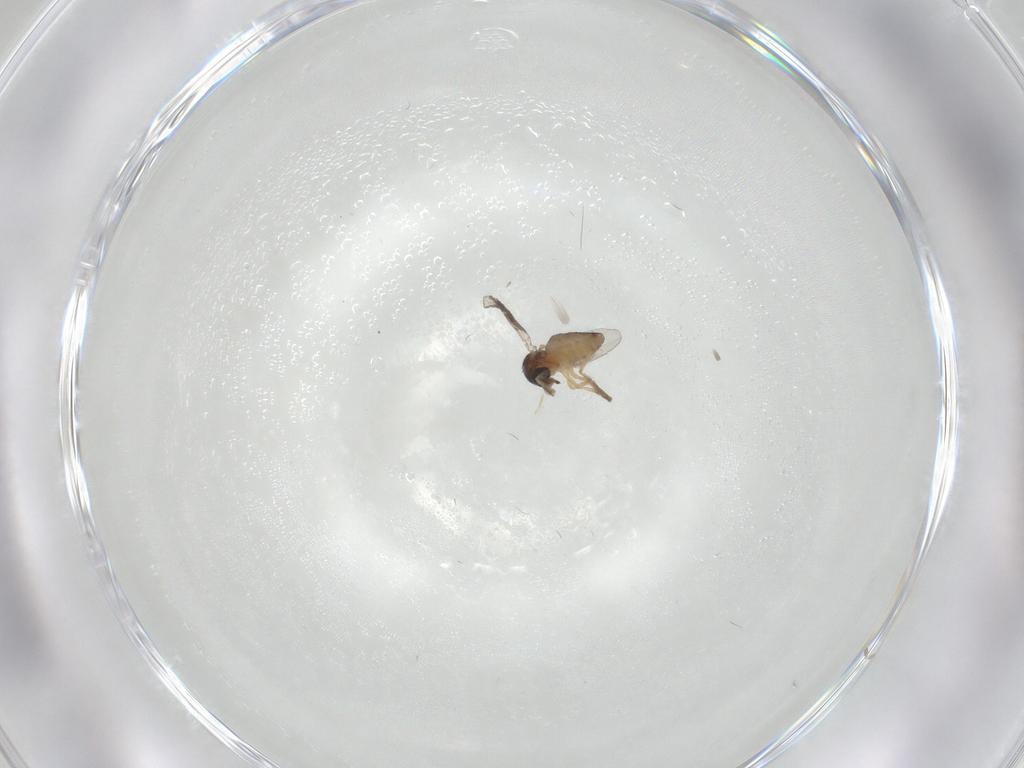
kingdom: Animalia
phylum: Arthropoda
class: Insecta
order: Diptera
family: Ceratopogonidae
